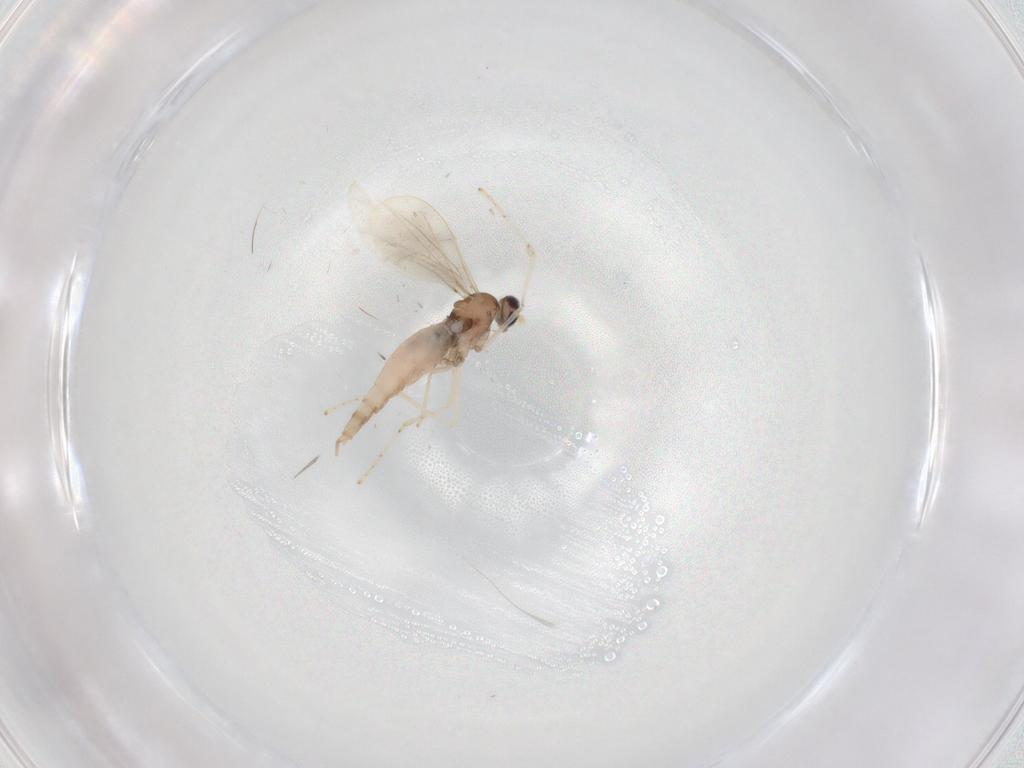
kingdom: Animalia
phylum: Arthropoda
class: Insecta
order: Diptera
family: Cecidomyiidae
